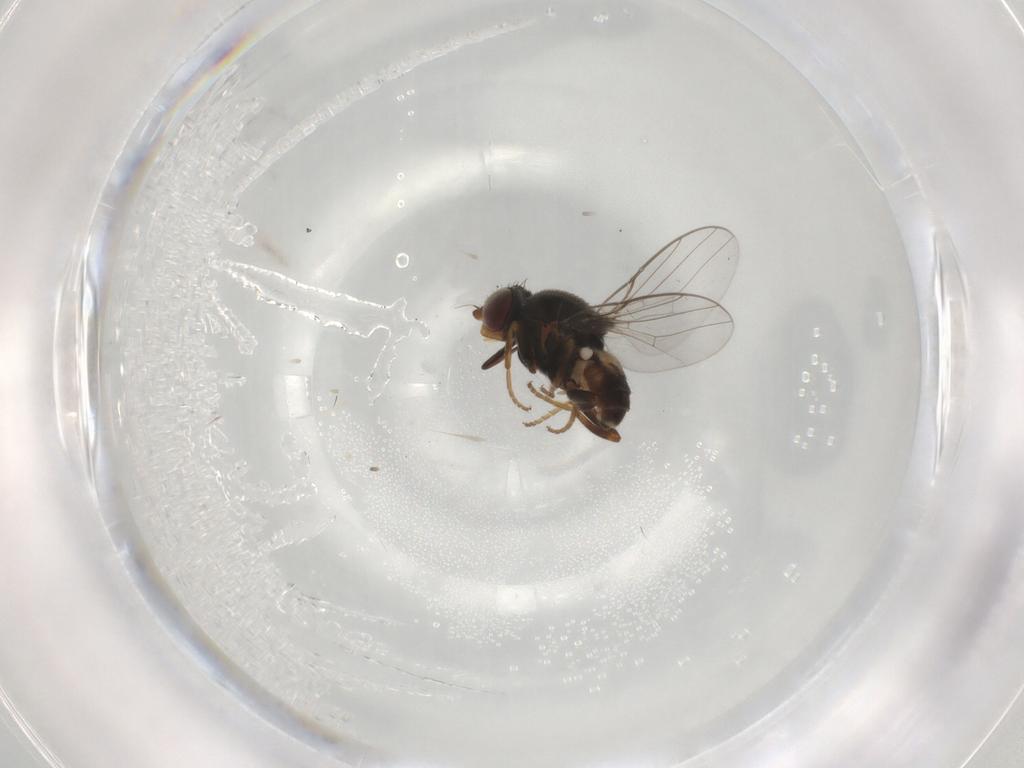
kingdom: Animalia
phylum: Arthropoda
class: Insecta
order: Diptera
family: Chloropidae
